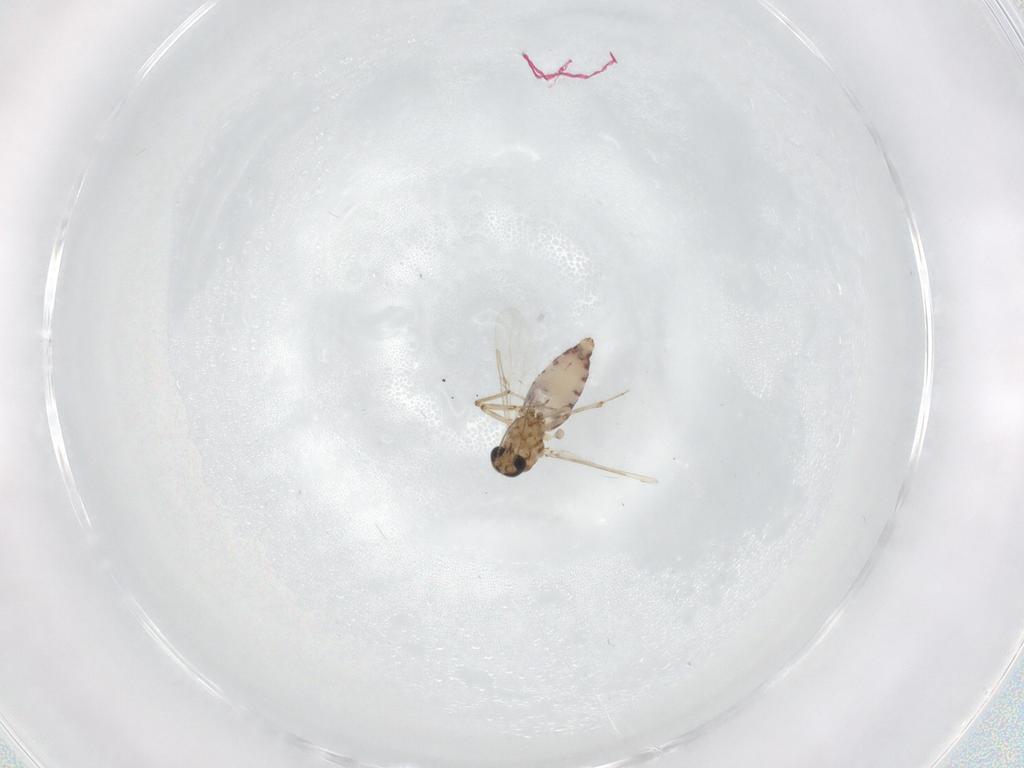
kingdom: Animalia
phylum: Arthropoda
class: Insecta
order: Diptera
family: Ceratopogonidae
